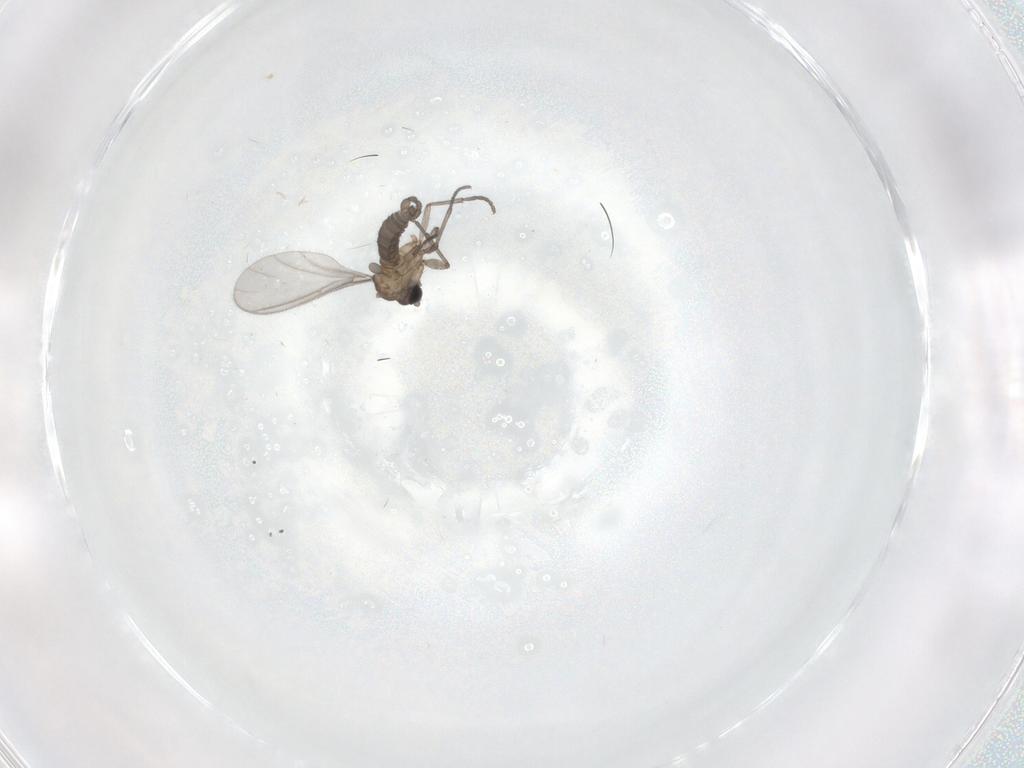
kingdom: Animalia
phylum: Arthropoda
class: Insecta
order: Diptera
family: Sciaridae
